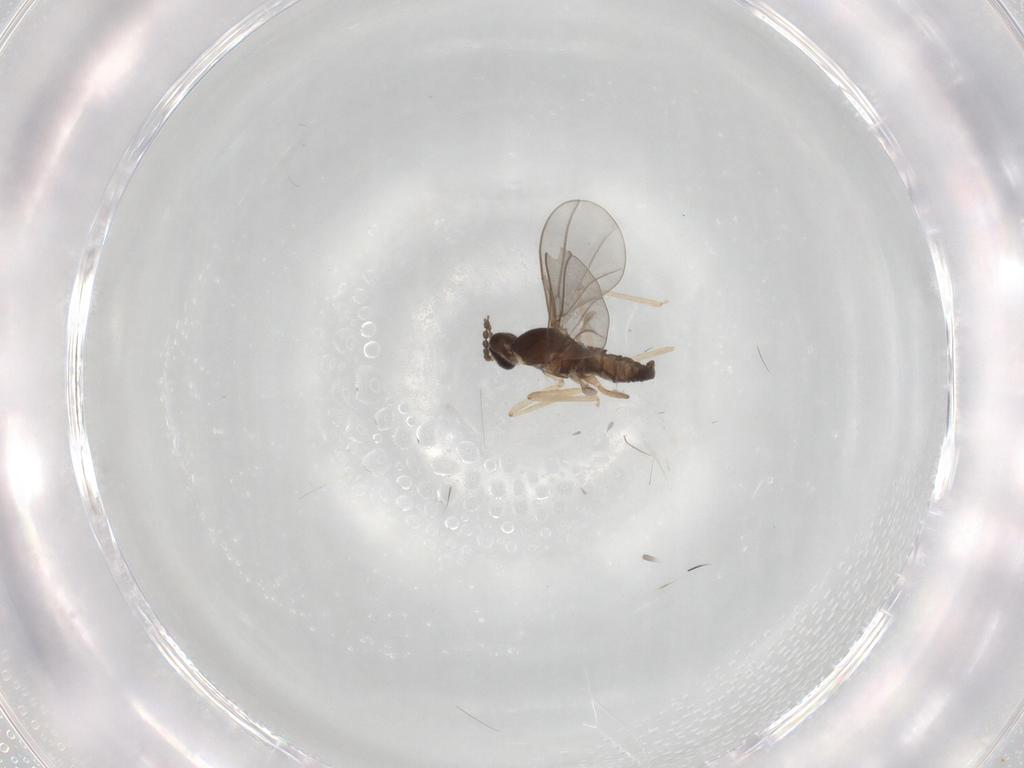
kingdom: Animalia
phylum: Arthropoda
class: Insecta
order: Diptera
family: Cecidomyiidae
